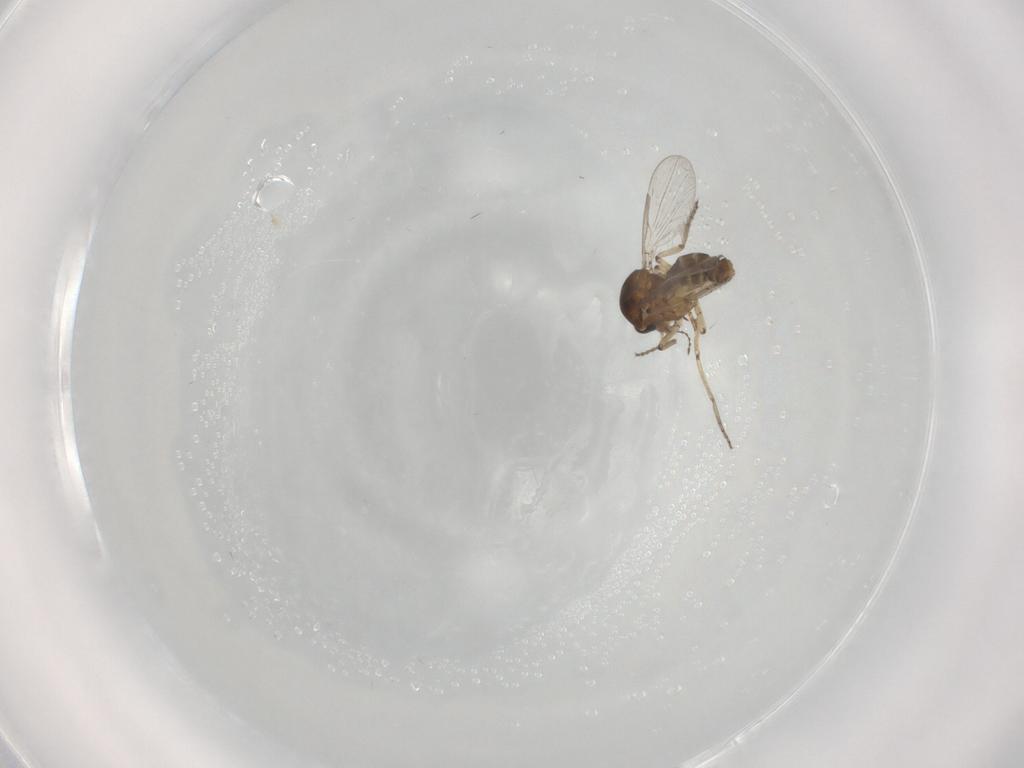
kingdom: Animalia
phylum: Arthropoda
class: Insecta
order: Diptera
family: Ceratopogonidae
